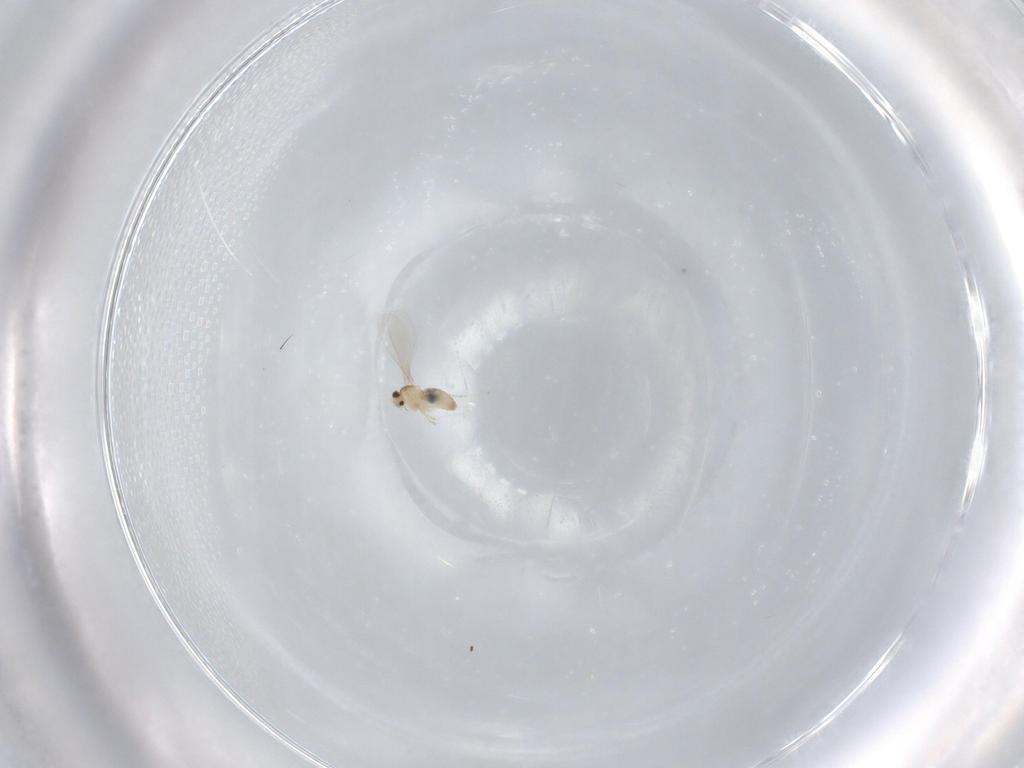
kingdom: Animalia
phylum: Arthropoda
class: Insecta
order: Diptera
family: Cecidomyiidae
